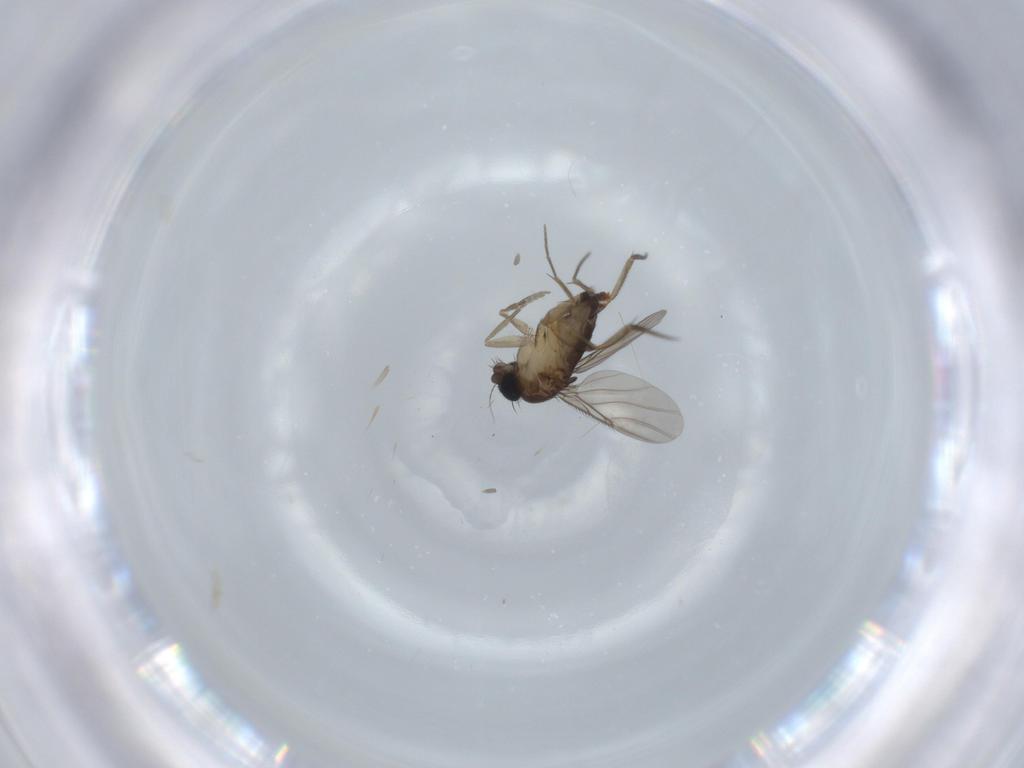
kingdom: Animalia
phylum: Arthropoda
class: Insecta
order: Diptera
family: Phoridae
